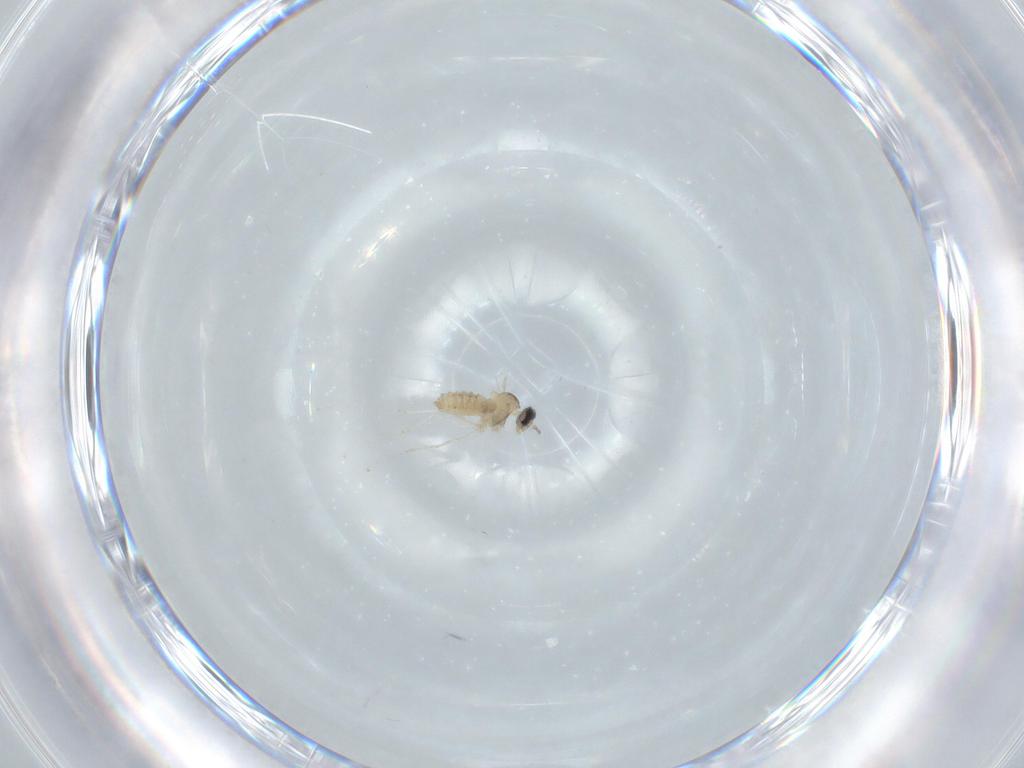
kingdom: Animalia
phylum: Arthropoda
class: Insecta
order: Diptera
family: Cecidomyiidae
